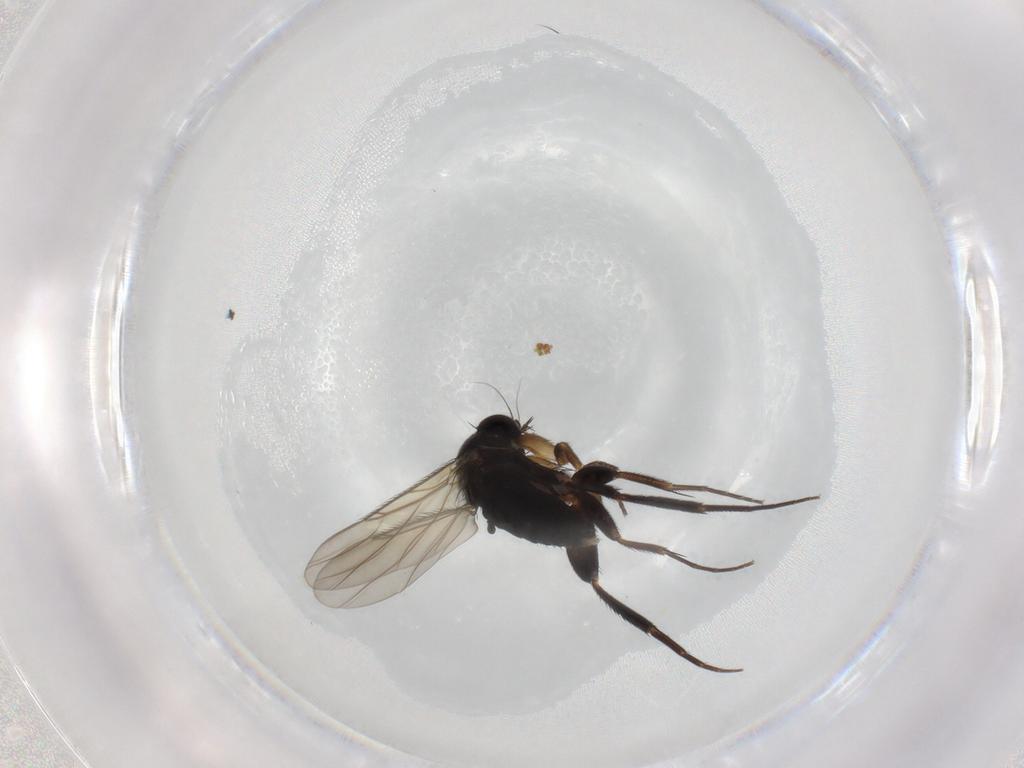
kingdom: Animalia
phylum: Arthropoda
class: Insecta
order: Diptera
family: Phoridae
